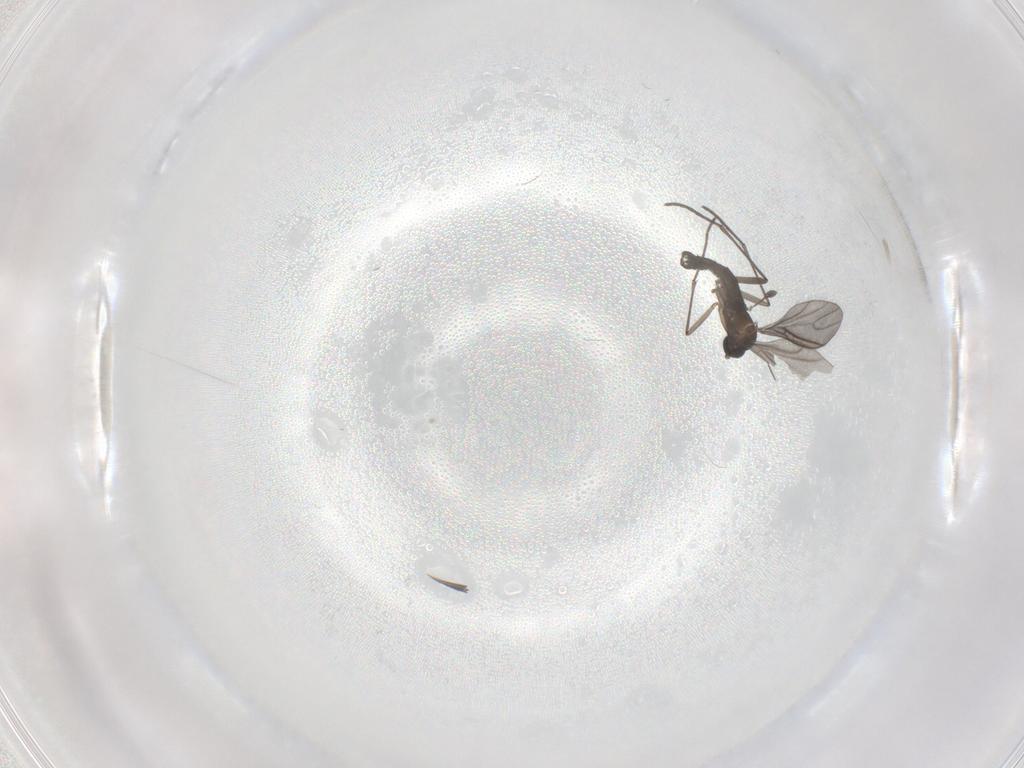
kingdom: Animalia
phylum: Arthropoda
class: Insecta
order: Diptera
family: Sciaridae
